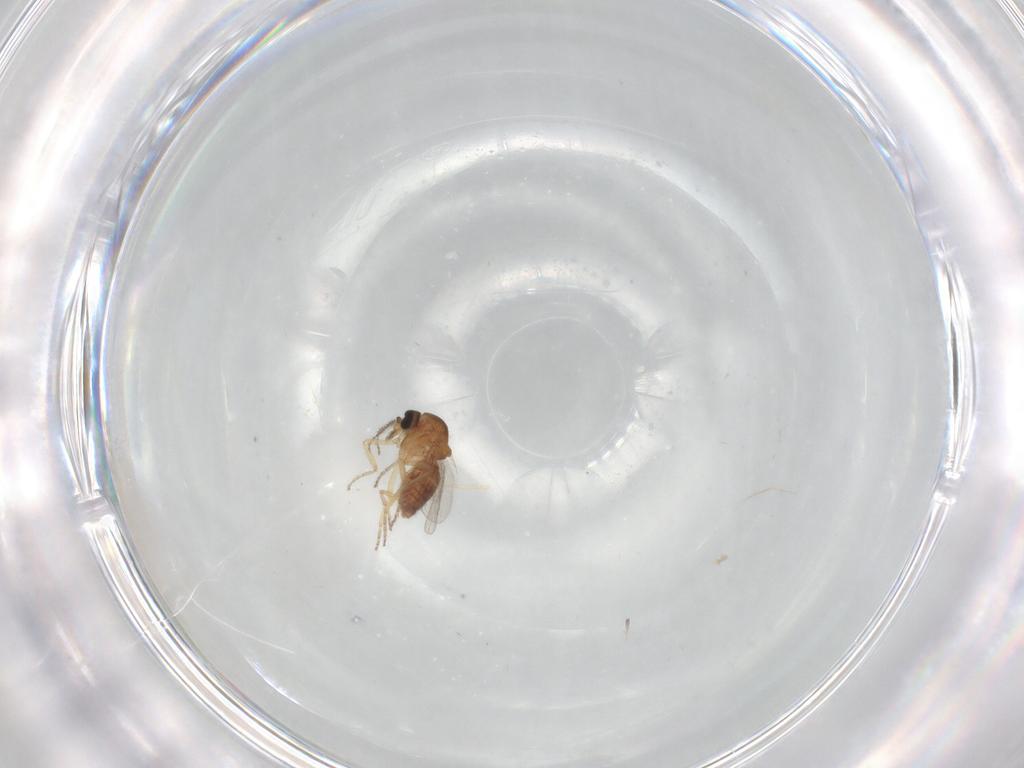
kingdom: Animalia
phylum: Arthropoda
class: Insecta
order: Diptera
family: Ceratopogonidae
